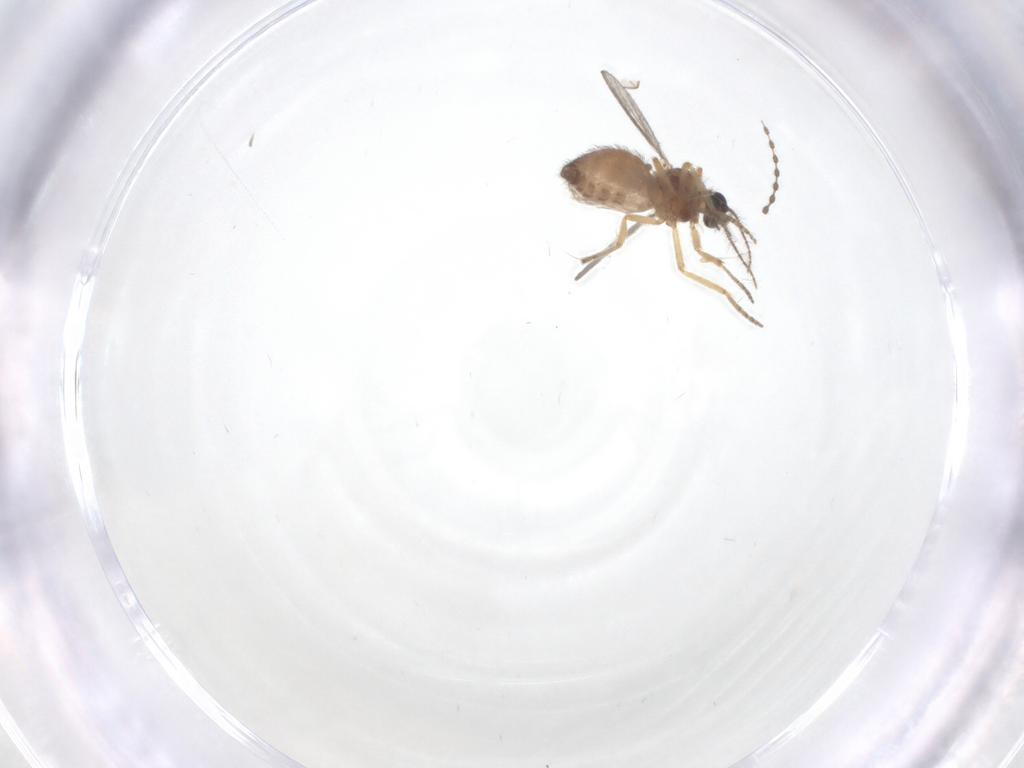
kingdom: Animalia
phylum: Arthropoda
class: Insecta
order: Diptera
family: Ceratopogonidae
